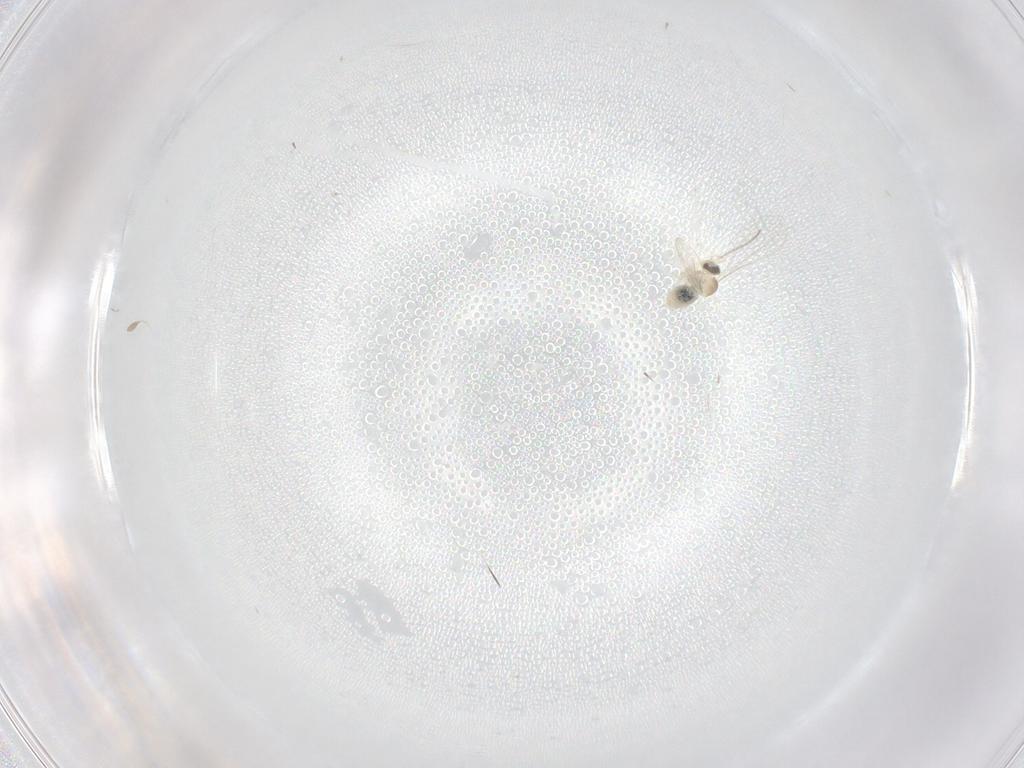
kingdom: Animalia
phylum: Arthropoda
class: Insecta
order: Diptera
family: Cecidomyiidae
